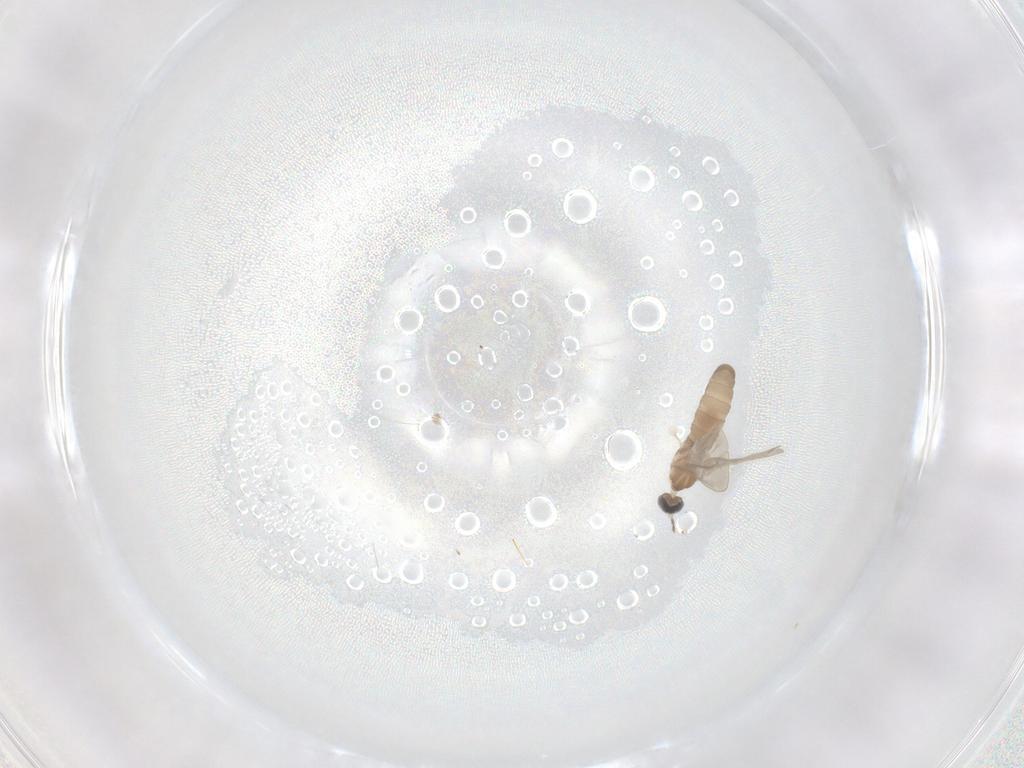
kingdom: Animalia
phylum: Arthropoda
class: Insecta
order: Diptera
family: Cecidomyiidae
